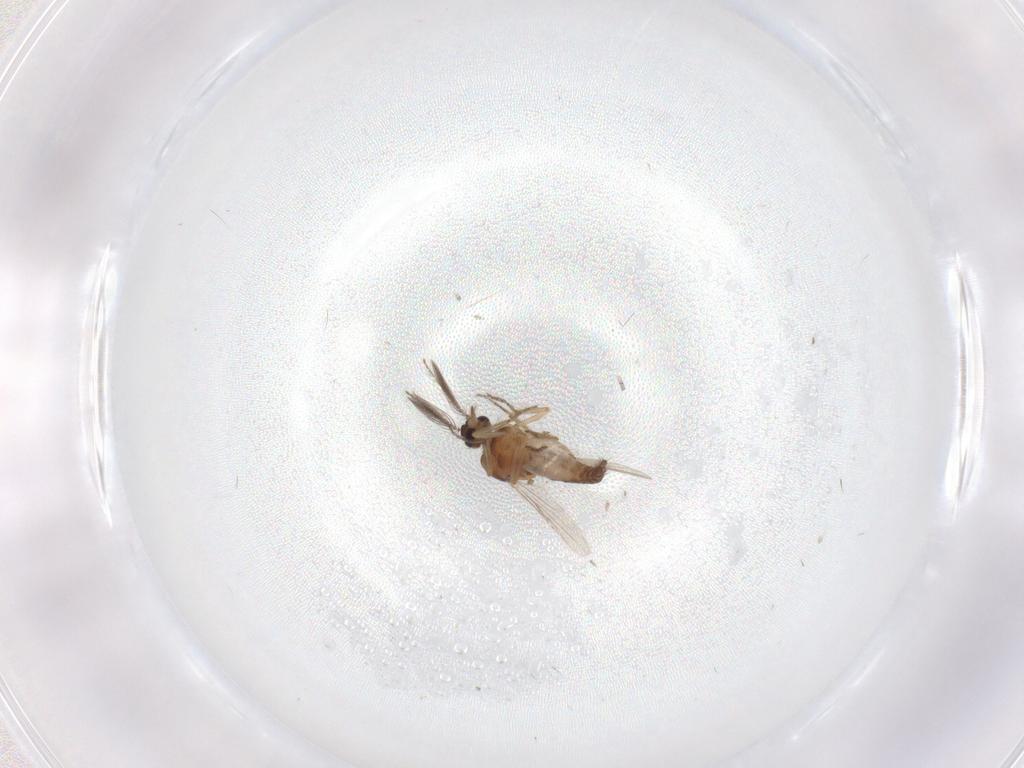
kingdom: Animalia
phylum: Arthropoda
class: Insecta
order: Diptera
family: Ceratopogonidae
